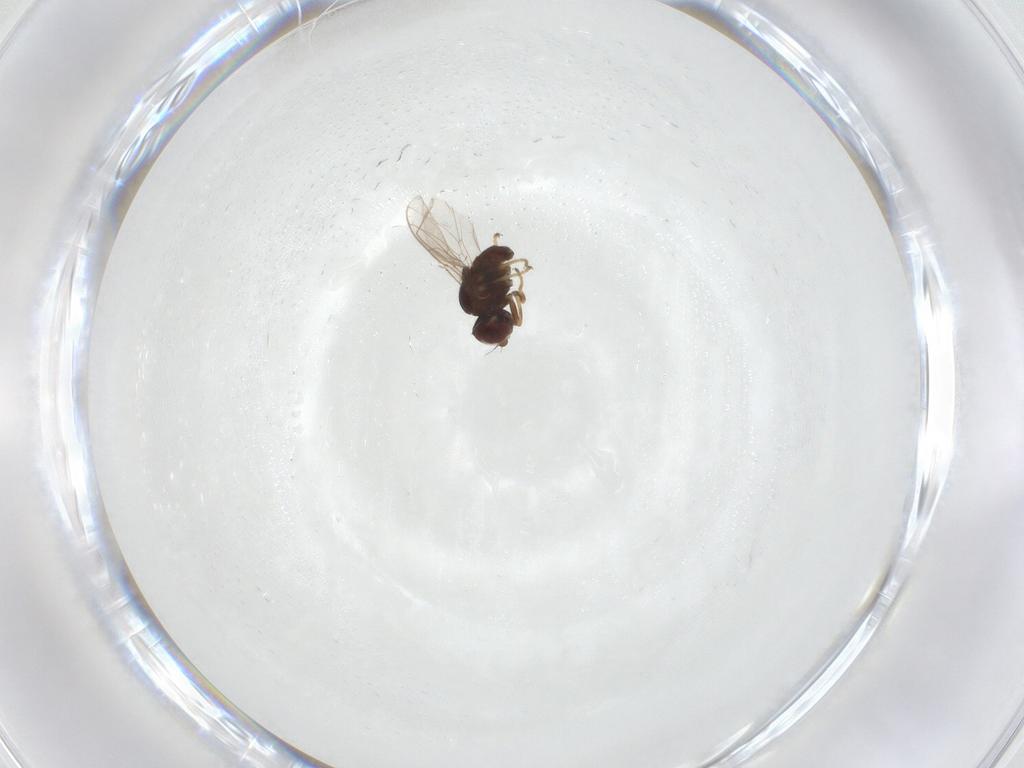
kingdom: Animalia
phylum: Arthropoda
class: Insecta
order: Diptera
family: Chloropidae
